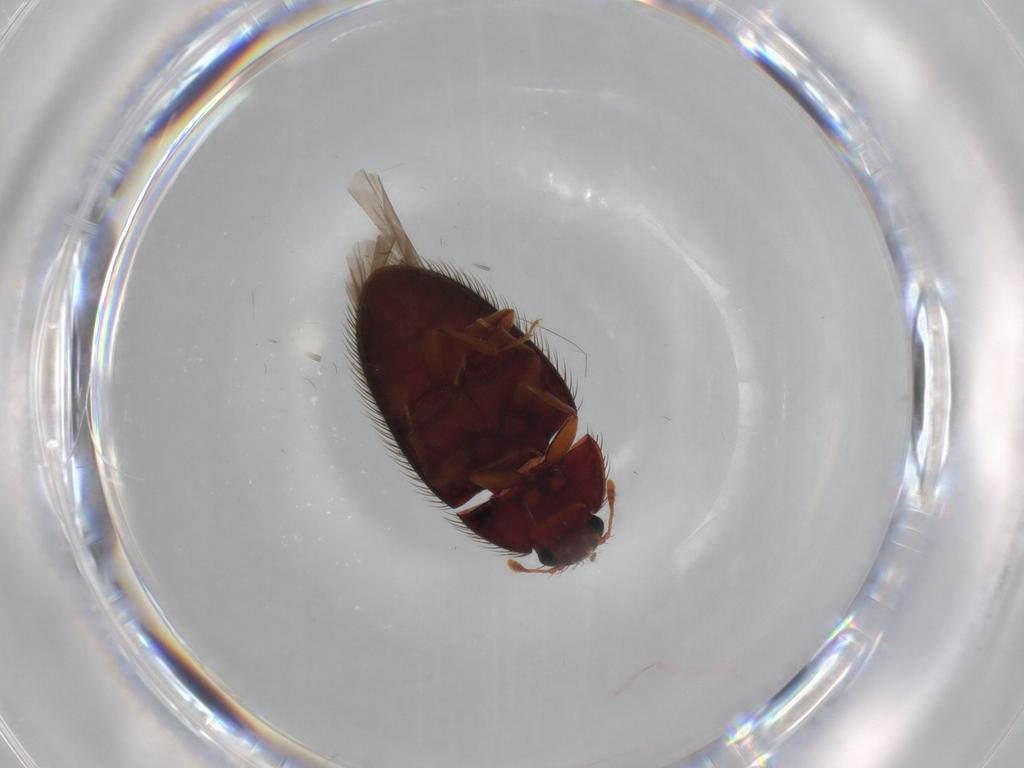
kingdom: Animalia
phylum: Arthropoda
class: Insecta
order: Coleoptera
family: Biphyllidae
